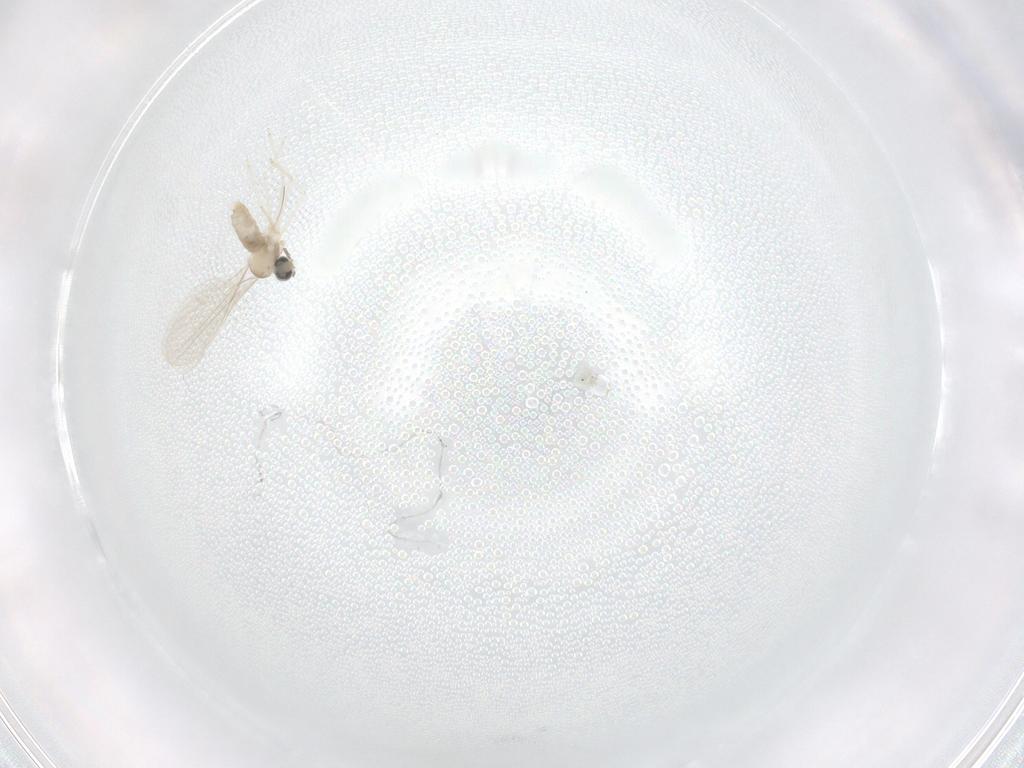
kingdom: Animalia
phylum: Arthropoda
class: Insecta
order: Diptera
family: Cecidomyiidae
